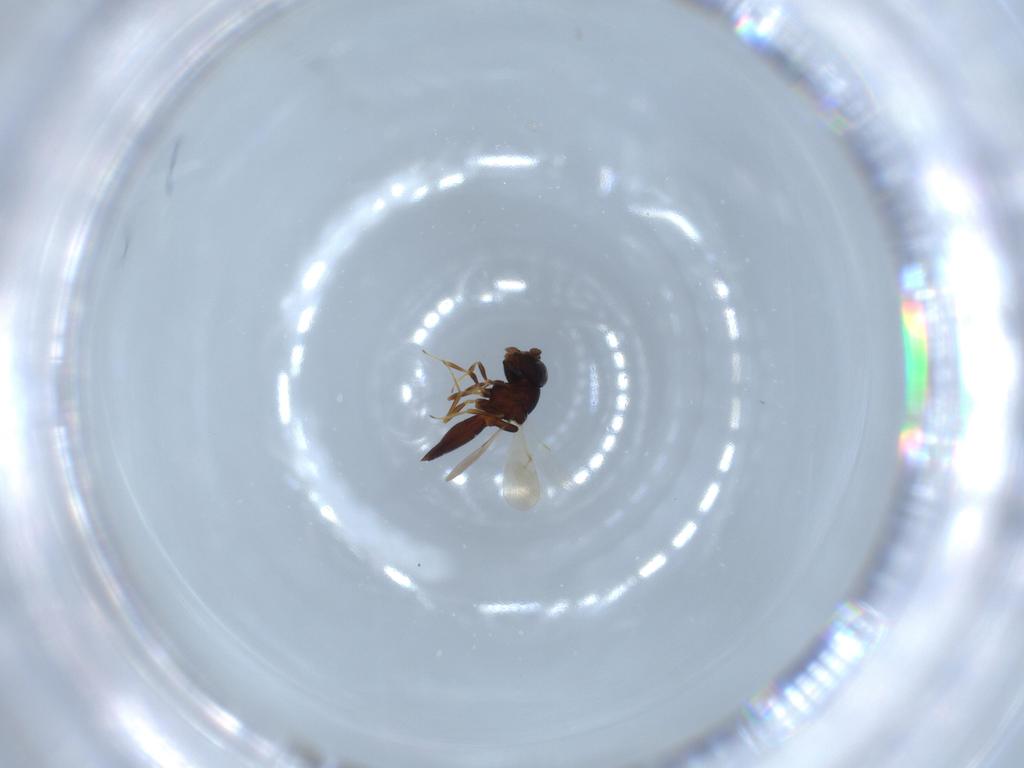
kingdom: Animalia
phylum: Arthropoda
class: Insecta
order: Hymenoptera
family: Scelionidae
